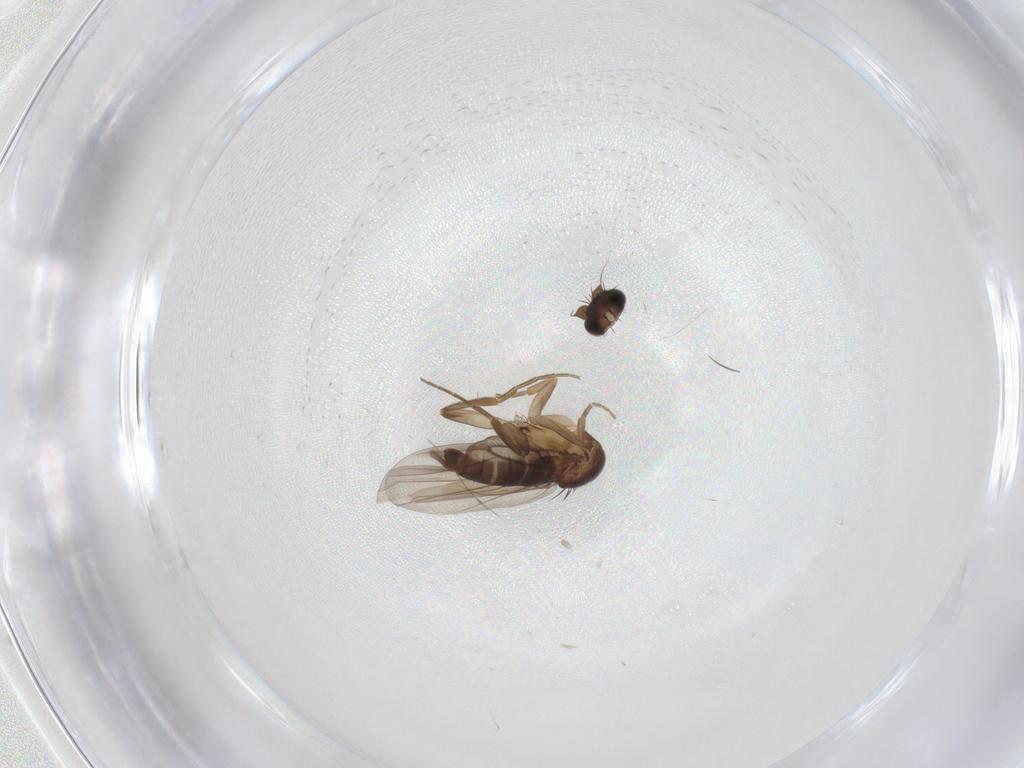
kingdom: Animalia
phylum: Arthropoda
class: Insecta
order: Diptera
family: Phoridae
